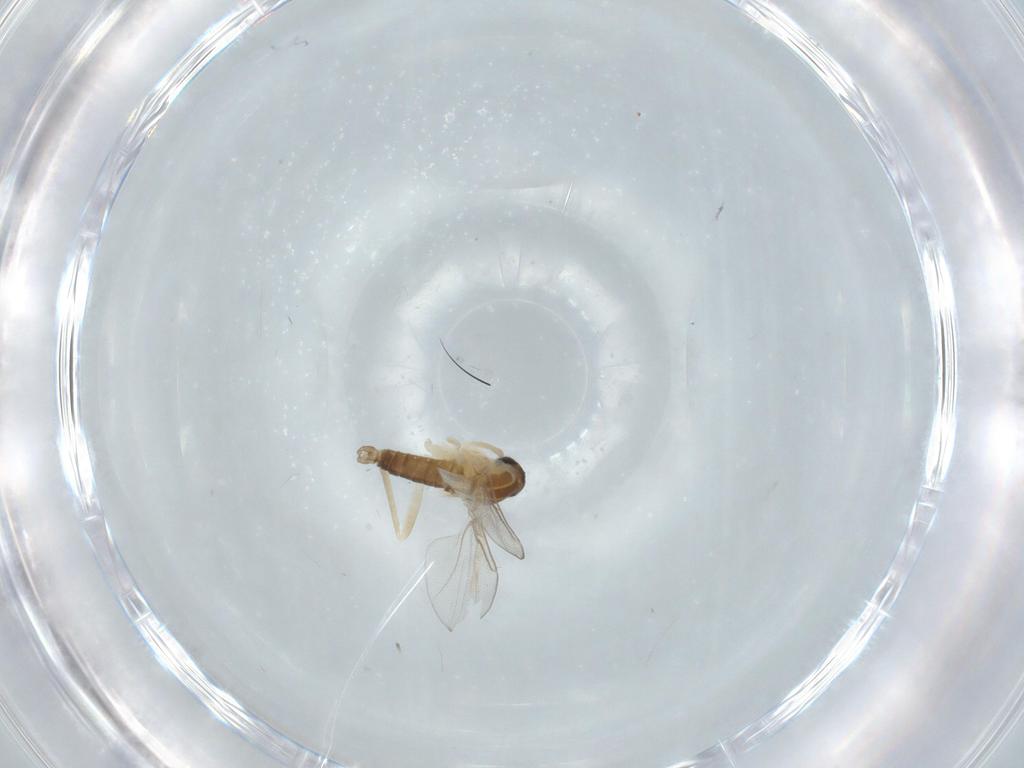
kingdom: Animalia
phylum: Arthropoda
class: Insecta
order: Diptera
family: Cecidomyiidae
